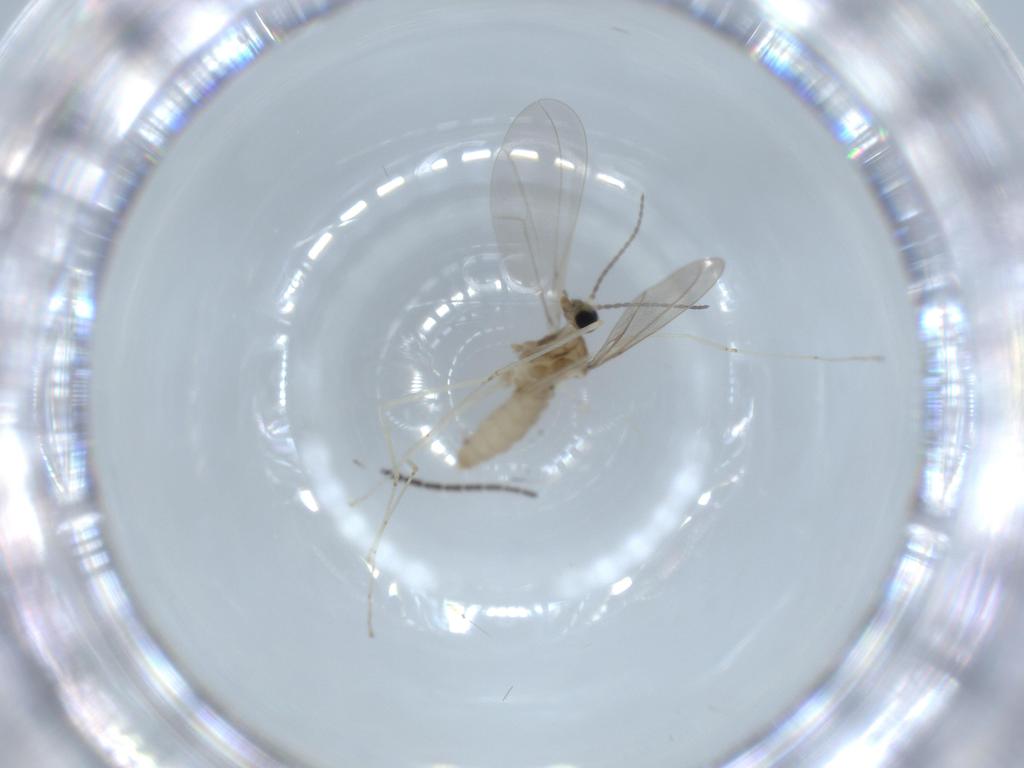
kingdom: Animalia
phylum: Arthropoda
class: Insecta
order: Diptera
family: Cecidomyiidae
